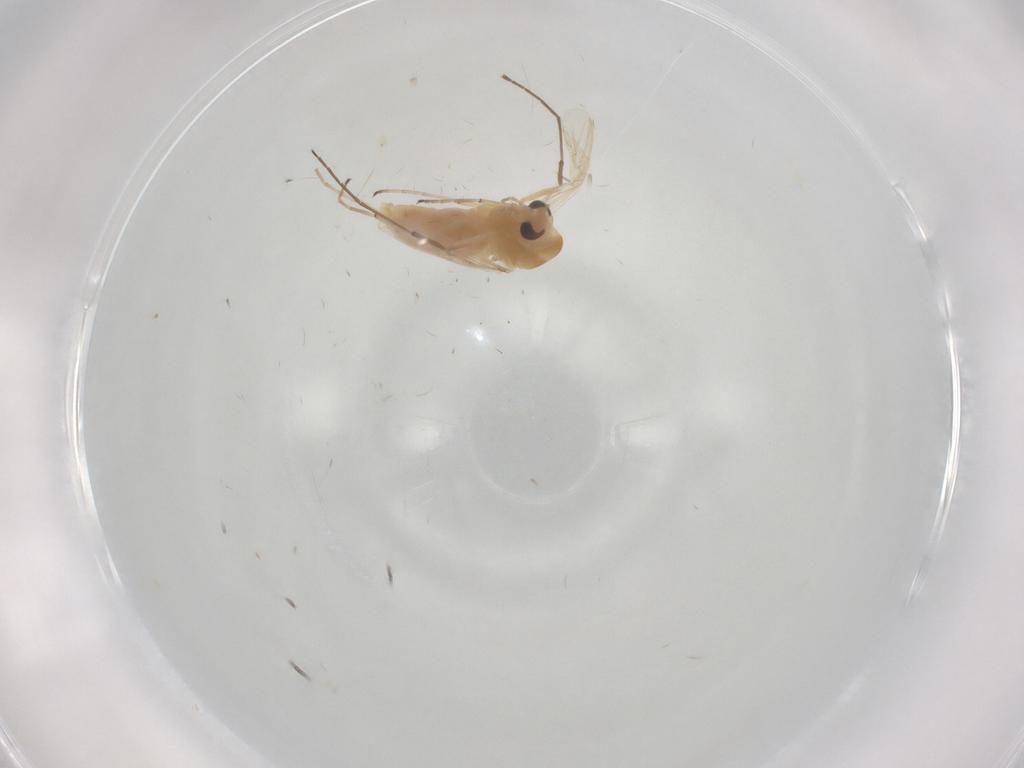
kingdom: Animalia
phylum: Arthropoda
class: Insecta
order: Diptera
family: Chironomidae
